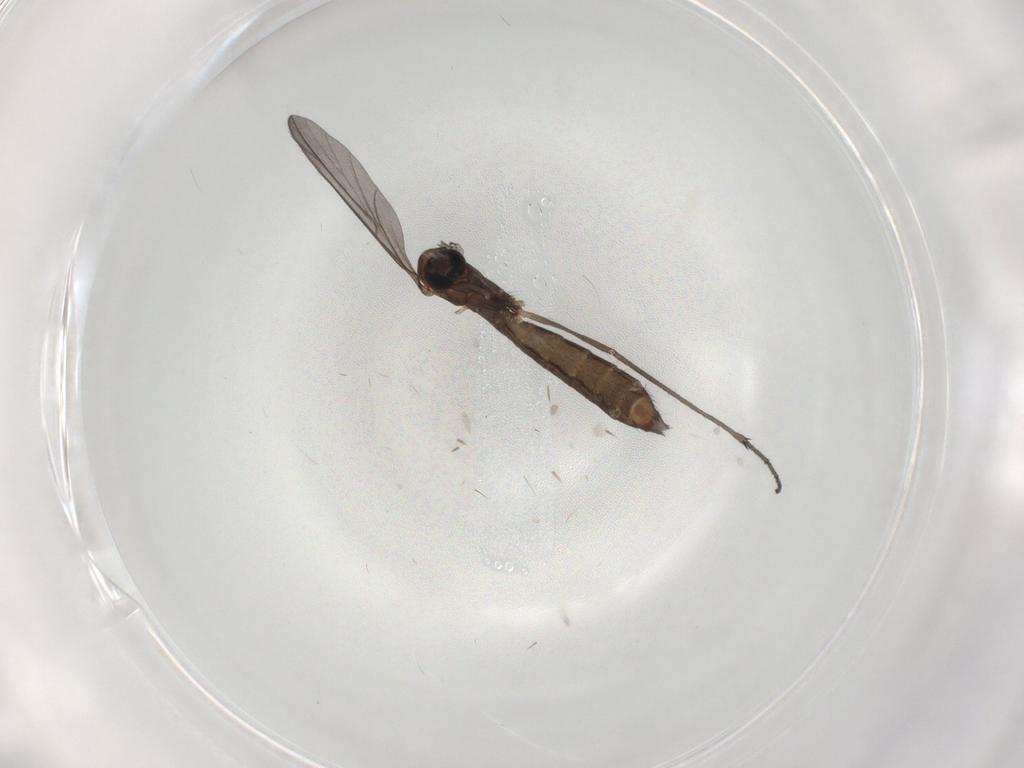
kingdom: Animalia
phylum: Arthropoda
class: Insecta
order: Diptera
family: Keroplatidae
